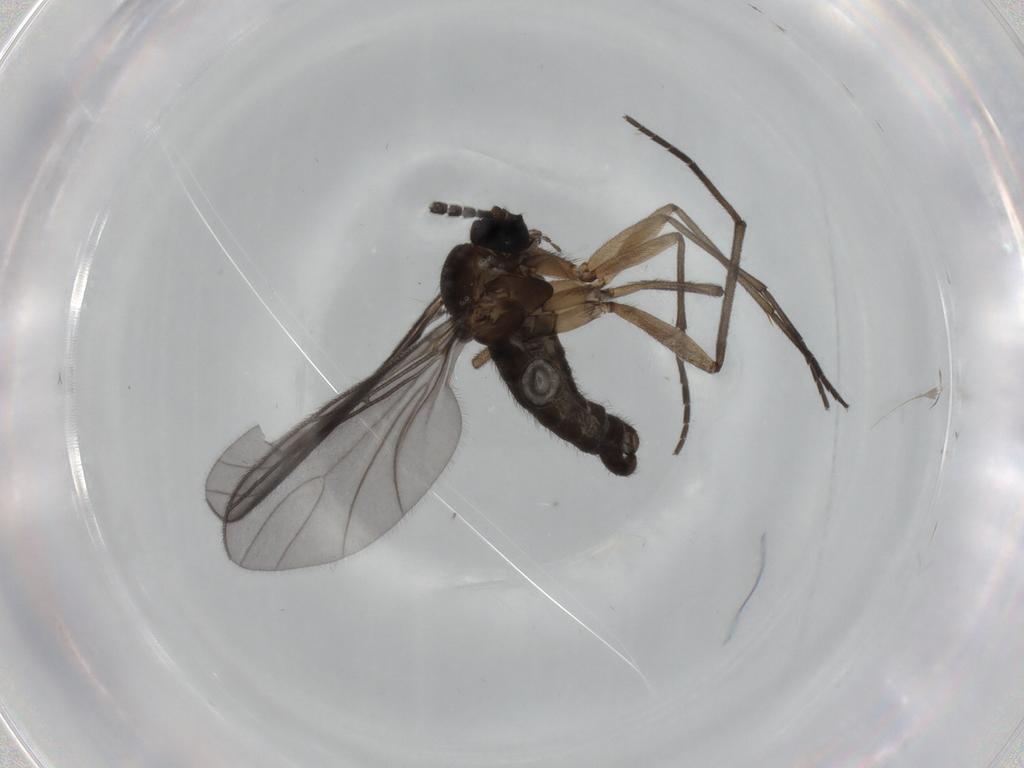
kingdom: Animalia
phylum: Arthropoda
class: Insecta
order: Diptera
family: Sciaridae
